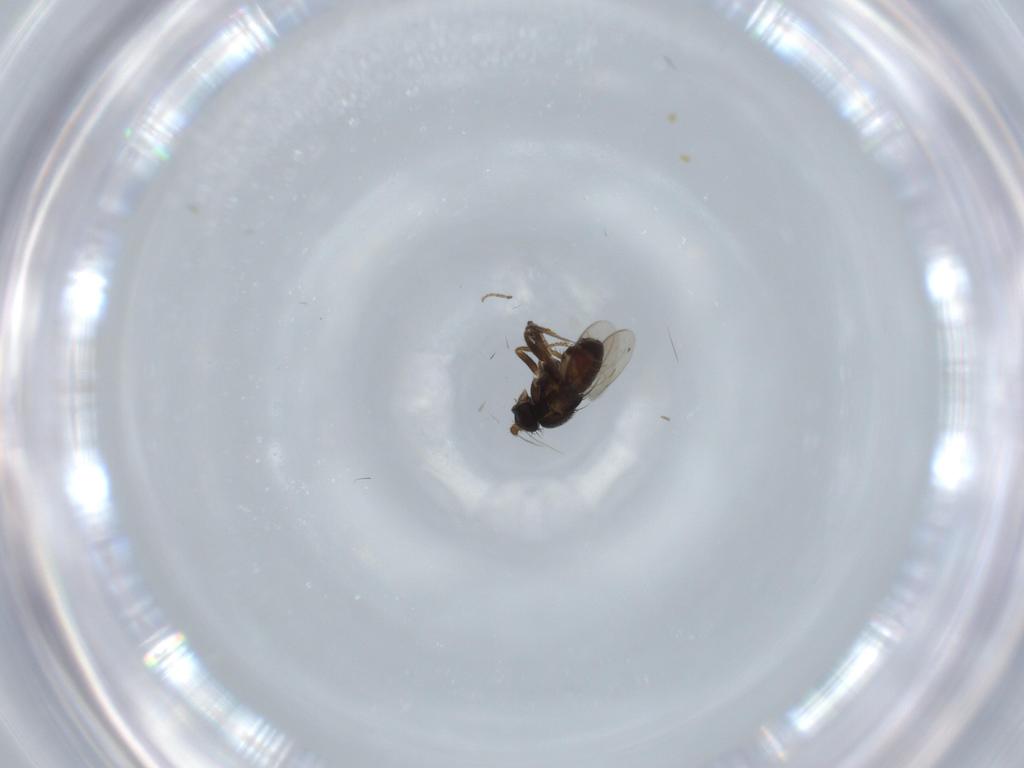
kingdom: Animalia
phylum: Arthropoda
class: Insecta
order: Diptera
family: Sphaeroceridae
